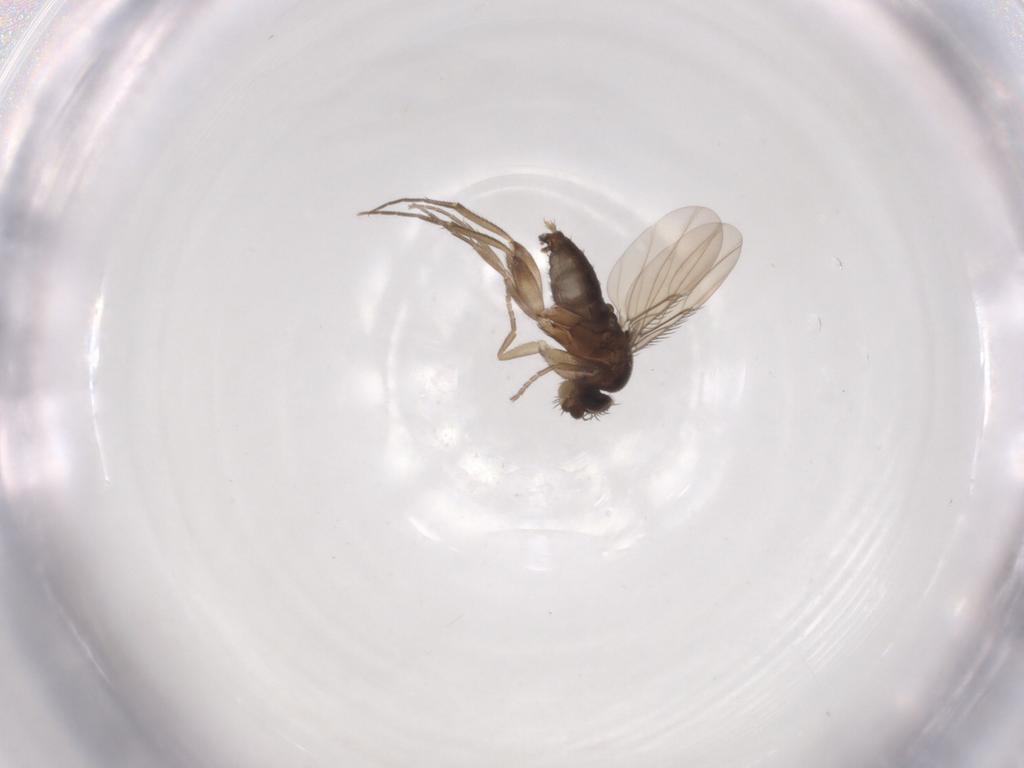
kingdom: Animalia
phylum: Arthropoda
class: Insecta
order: Diptera
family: Phoridae
